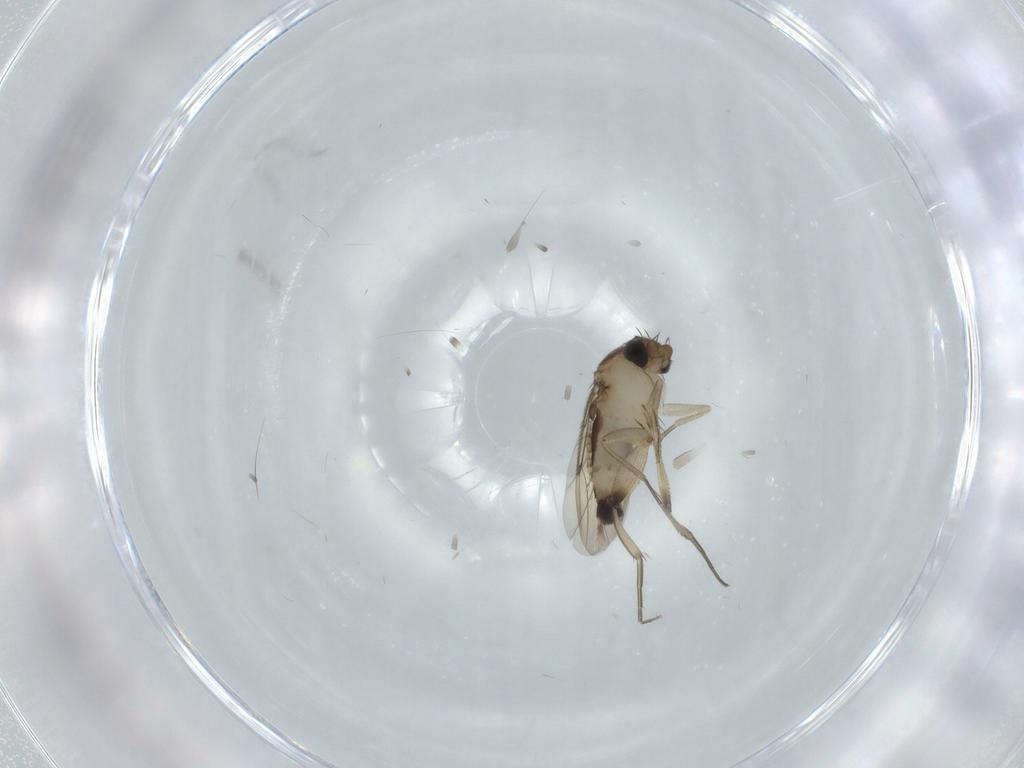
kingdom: Animalia
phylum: Arthropoda
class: Insecta
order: Diptera
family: Phoridae
